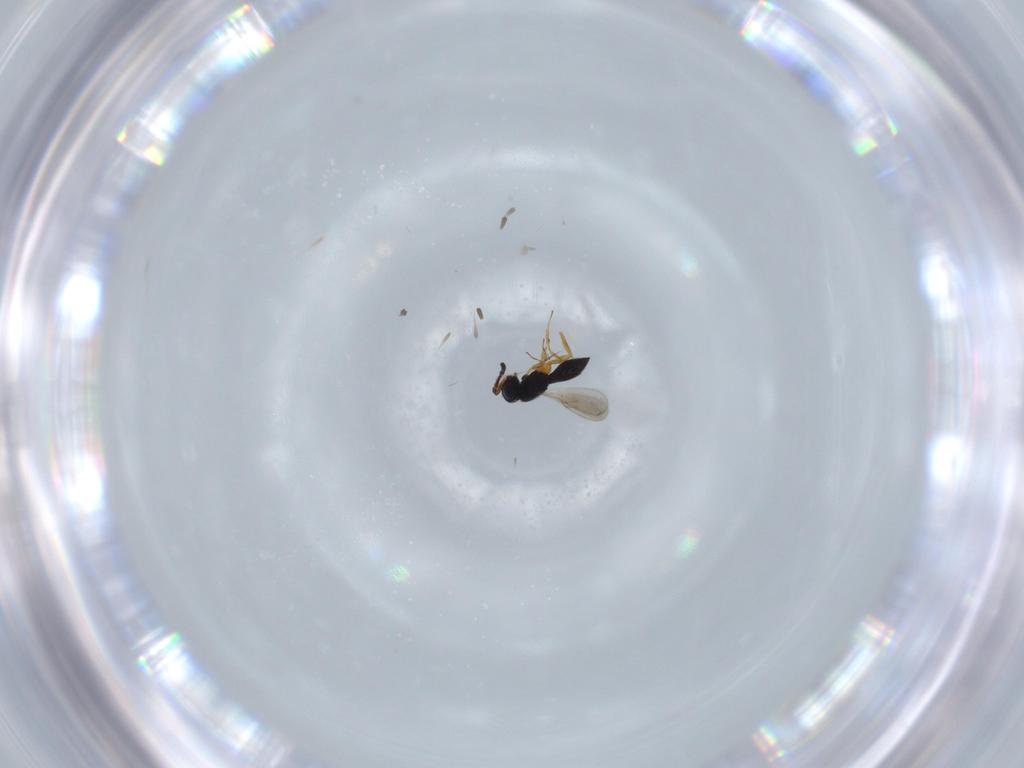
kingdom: Animalia
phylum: Arthropoda
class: Insecta
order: Hymenoptera
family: Scelionidae
